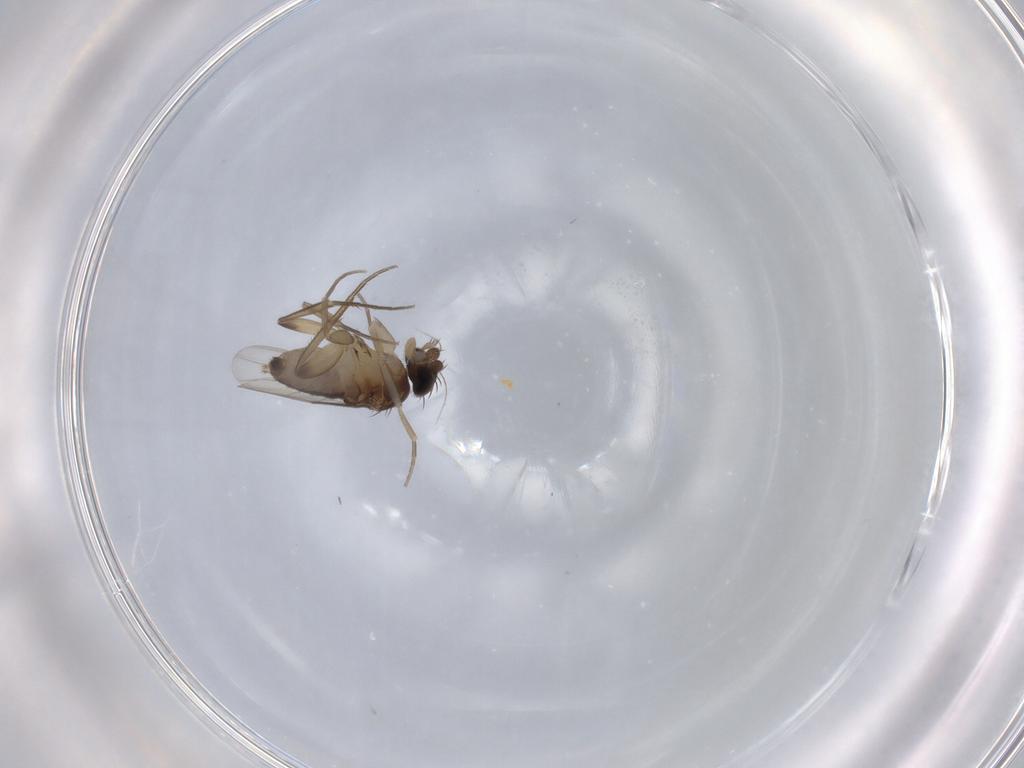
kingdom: Animalia
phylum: Arthropoda
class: Insecta
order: Diptera
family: Phoridae
